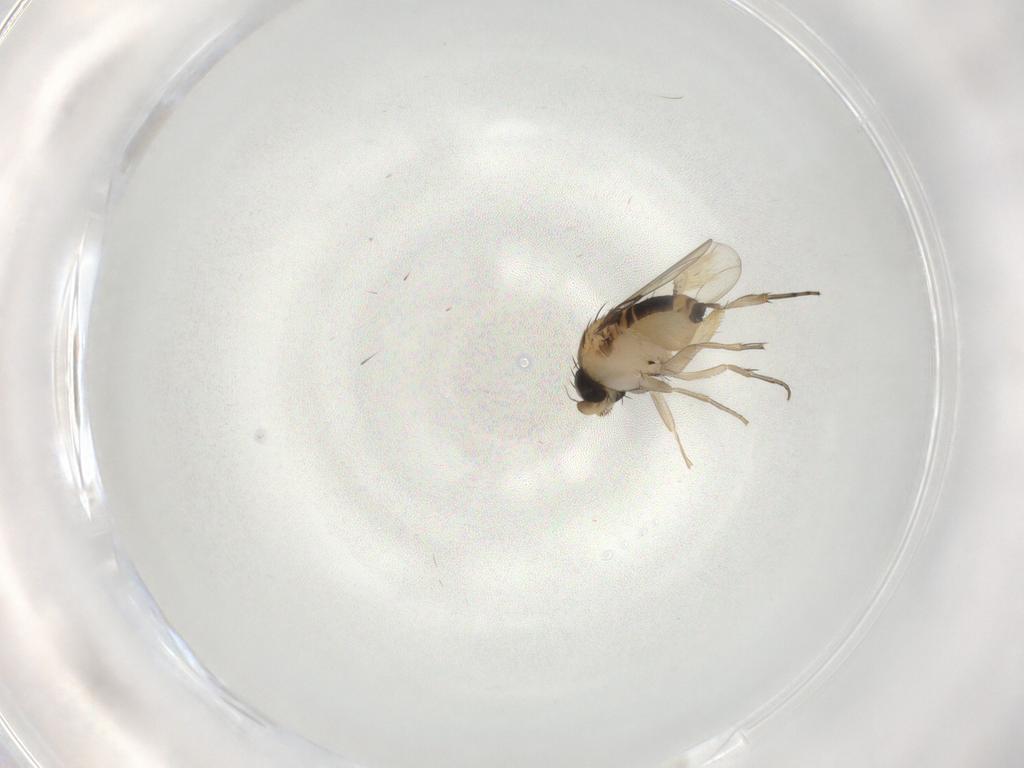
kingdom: Animalia
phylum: Arthropoda
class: Insecta
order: Diptera
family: Phoridae
